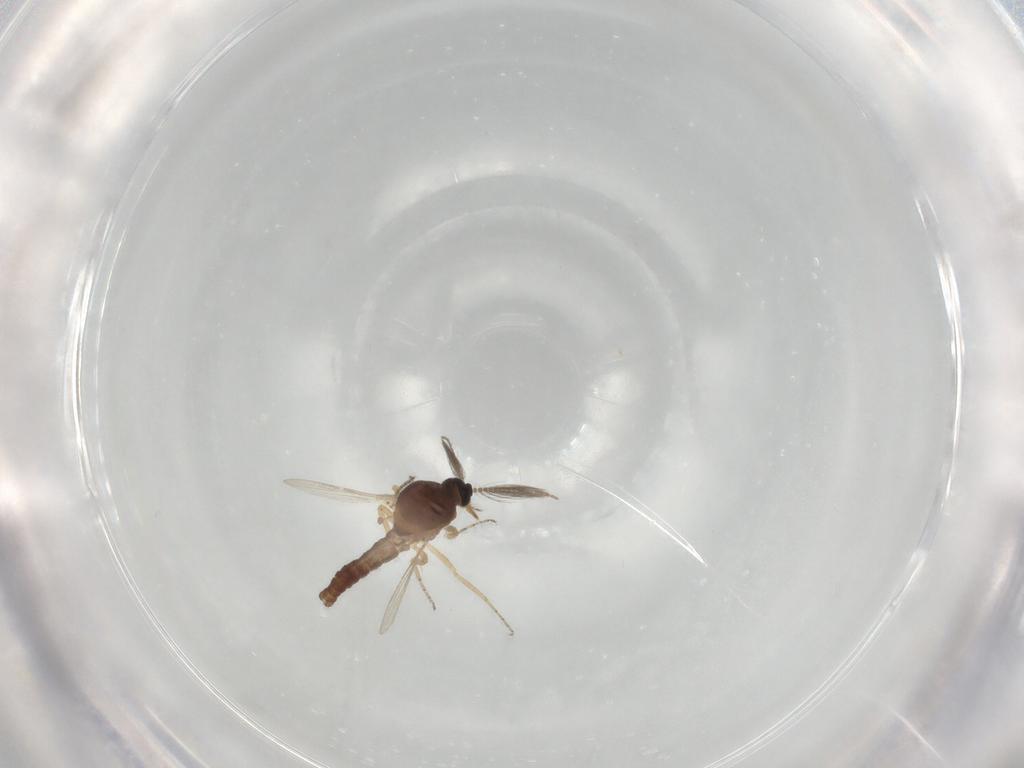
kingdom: Animalia
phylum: Arthropoda
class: Insecta
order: Diptera
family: Ceratopogonidae
